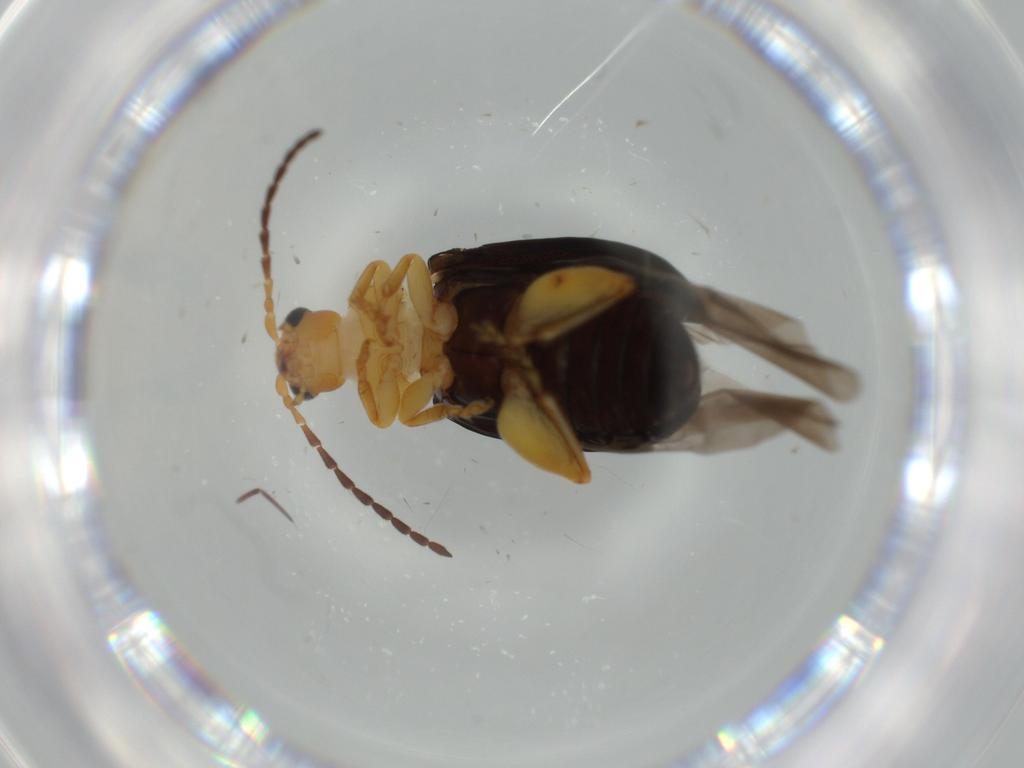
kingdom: Animalia
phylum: Arthropoda
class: Insecta
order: Coleoptera
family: Chrysomelidae
